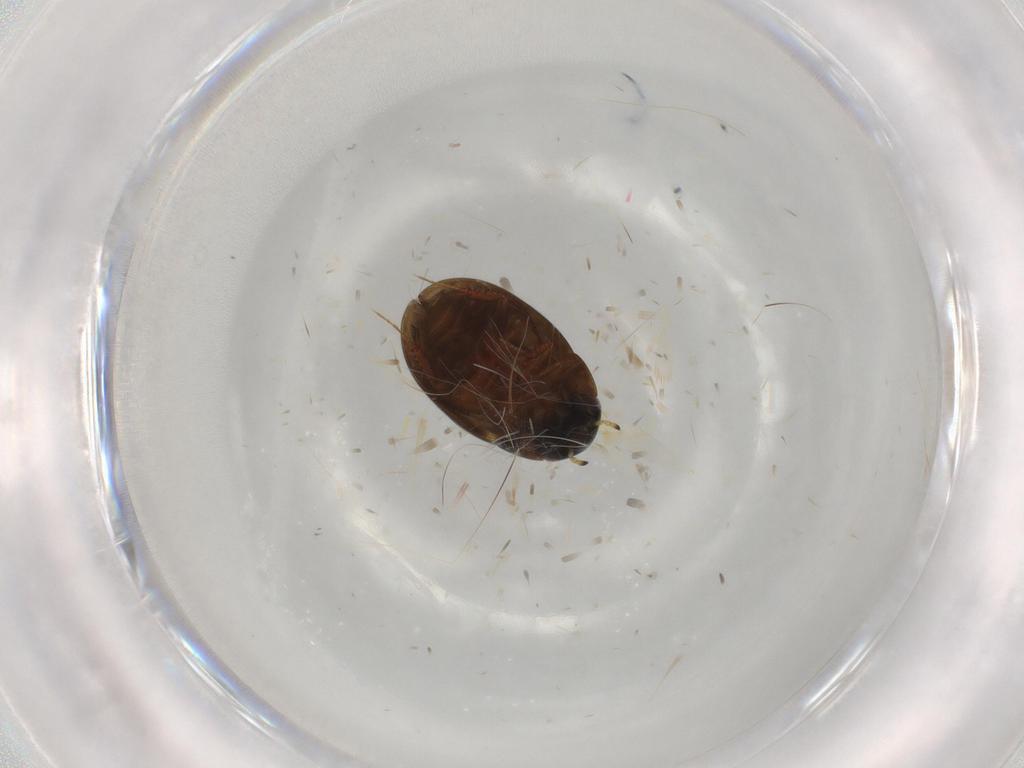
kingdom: Animalia
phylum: Arthropoda
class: Insecta
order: Coleoptera
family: Hydrophilidae
